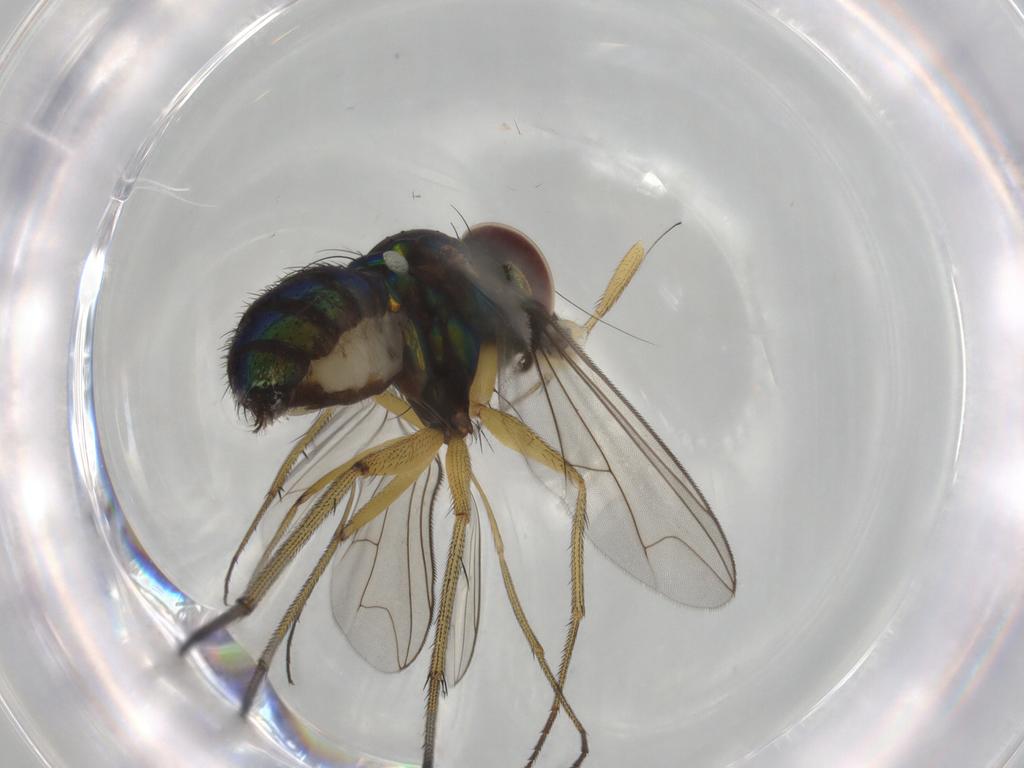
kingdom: Animalia
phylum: Arthropoda
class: Insecta
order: Diptera
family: Dolichopodidae
